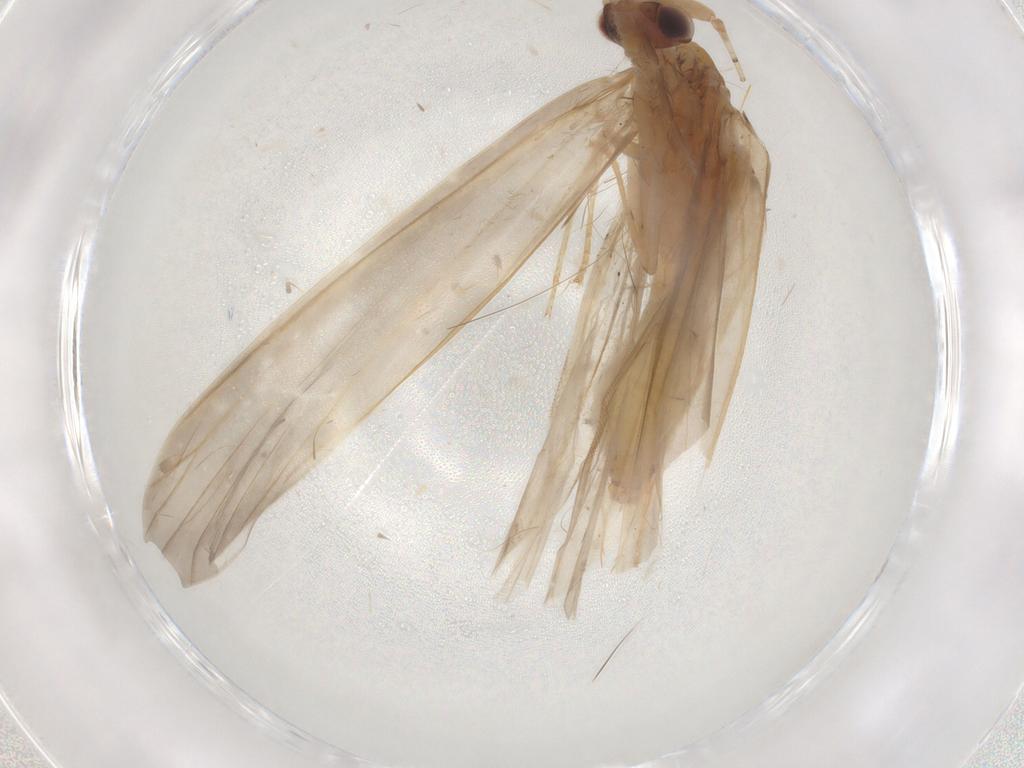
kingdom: Animalia
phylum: Arthropoda
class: Insecta
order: Trichoptera
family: Leptoceridae
